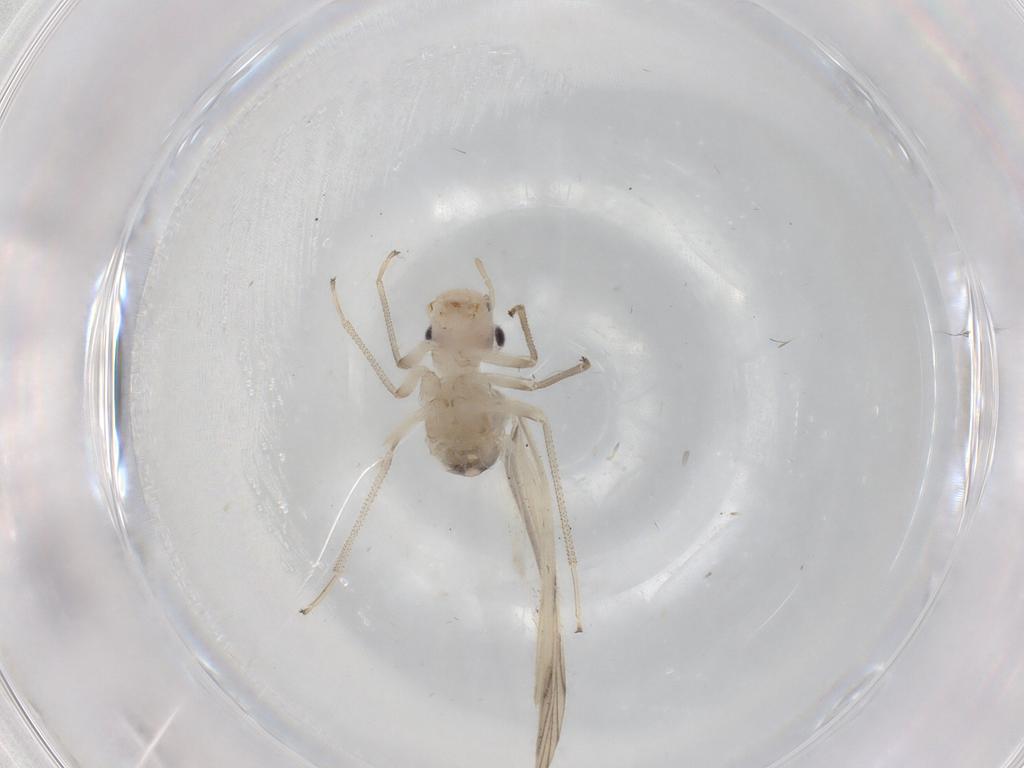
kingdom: Animalia
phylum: Arthropoda
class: Insecta
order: Psocodea
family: Caeciliusidae
